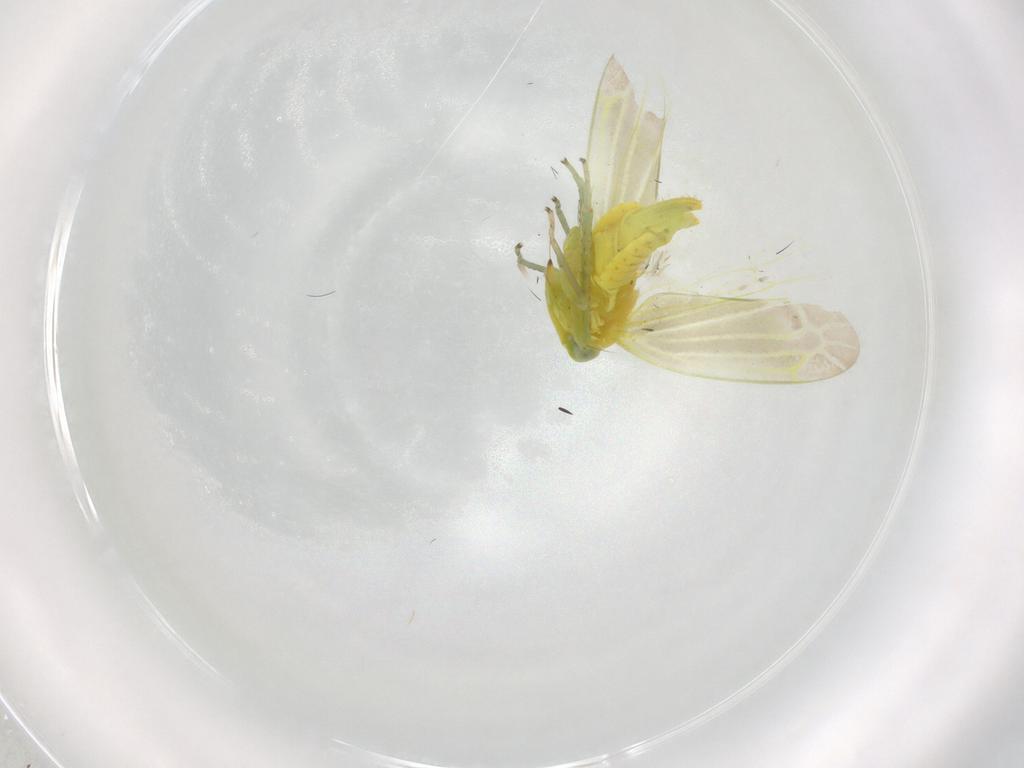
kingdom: Animalia
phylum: Arthropoda
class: Insecta
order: Hemiptera
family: Cicadellidae
